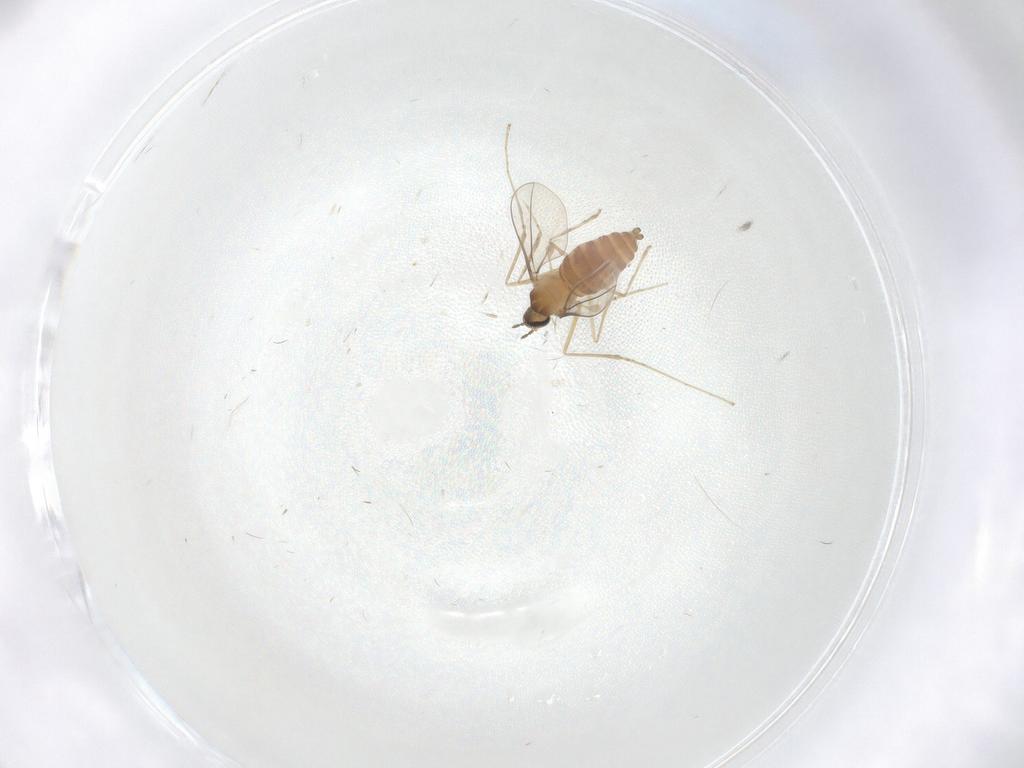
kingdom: Animalia
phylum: Arthropoda
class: Insecta
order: Diptera
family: Cecidomyiidae
